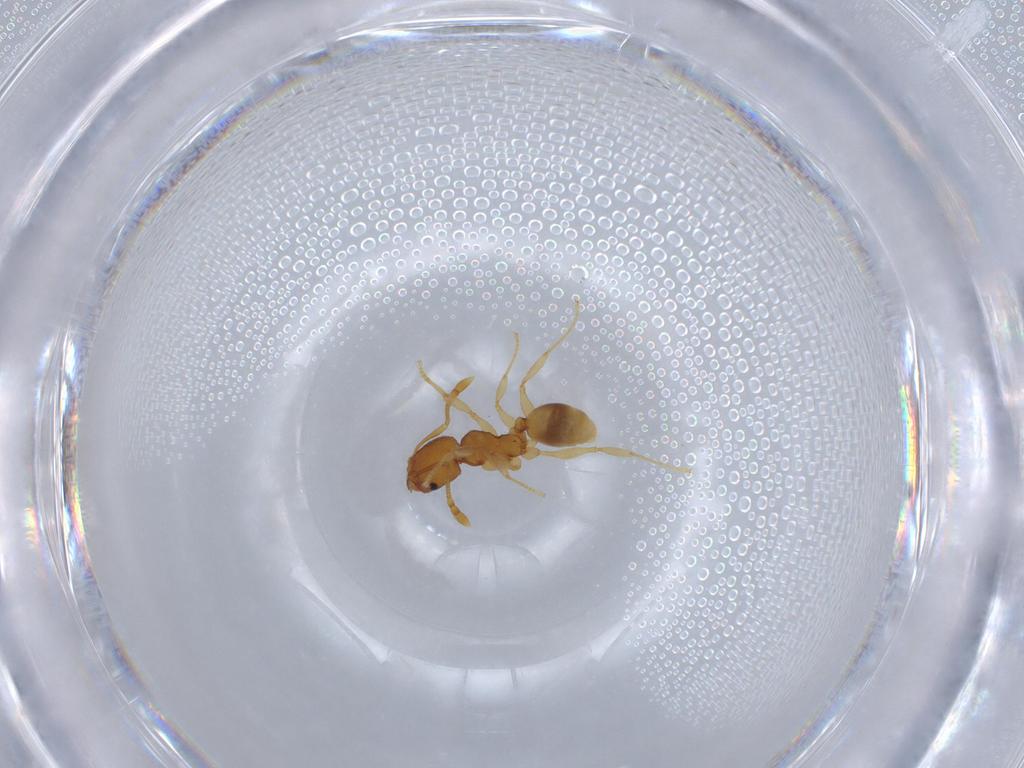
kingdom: Animalia
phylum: Arthropoda
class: Insecta
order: Hymenoptera
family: Formicidae
